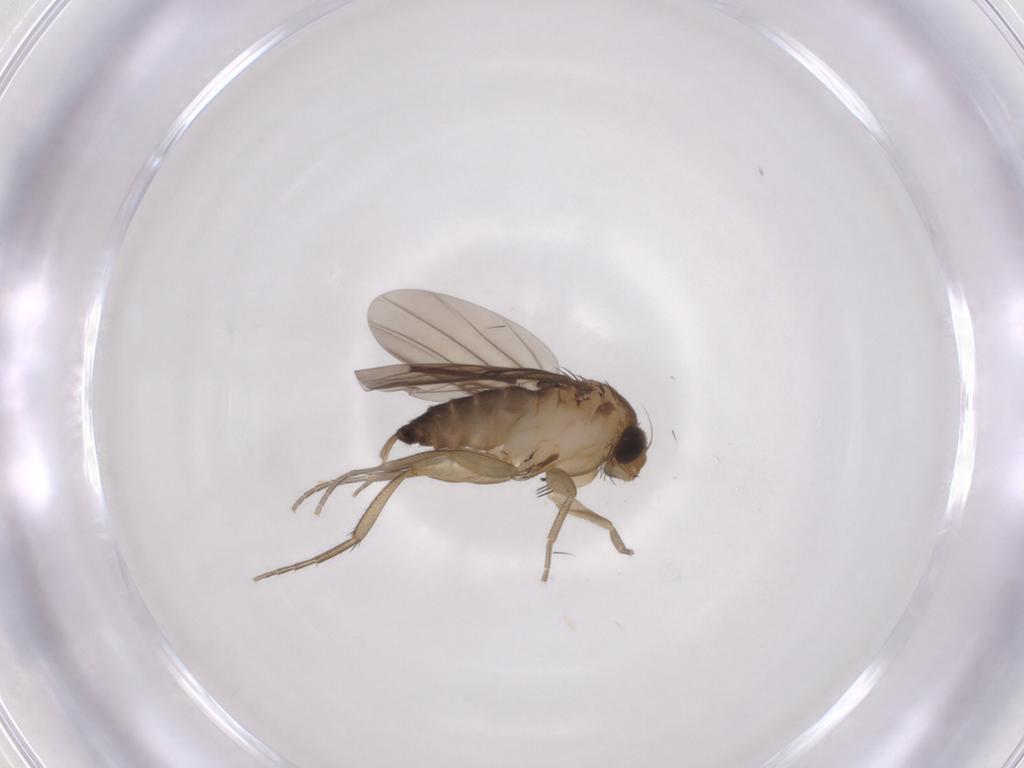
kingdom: Animalia
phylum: Arthropoda
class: Insecta
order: Diptera
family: Phoridae
